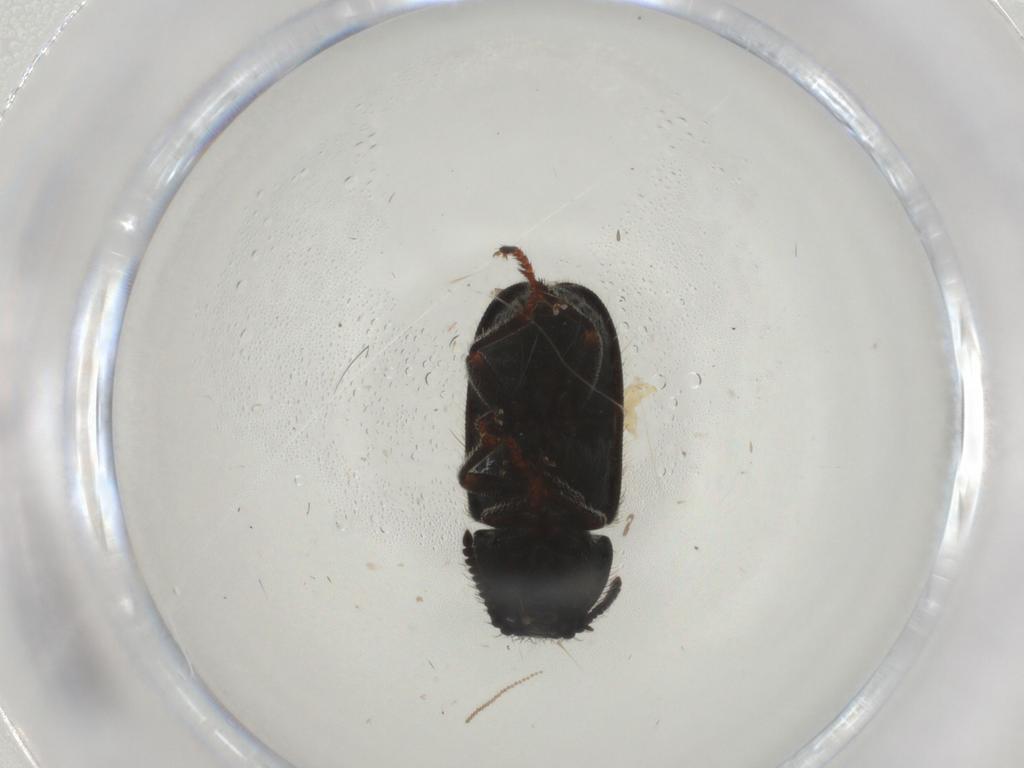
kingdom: Animalia
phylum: Arthropoda
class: Insecta
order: Coleoptera
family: Melyridae
